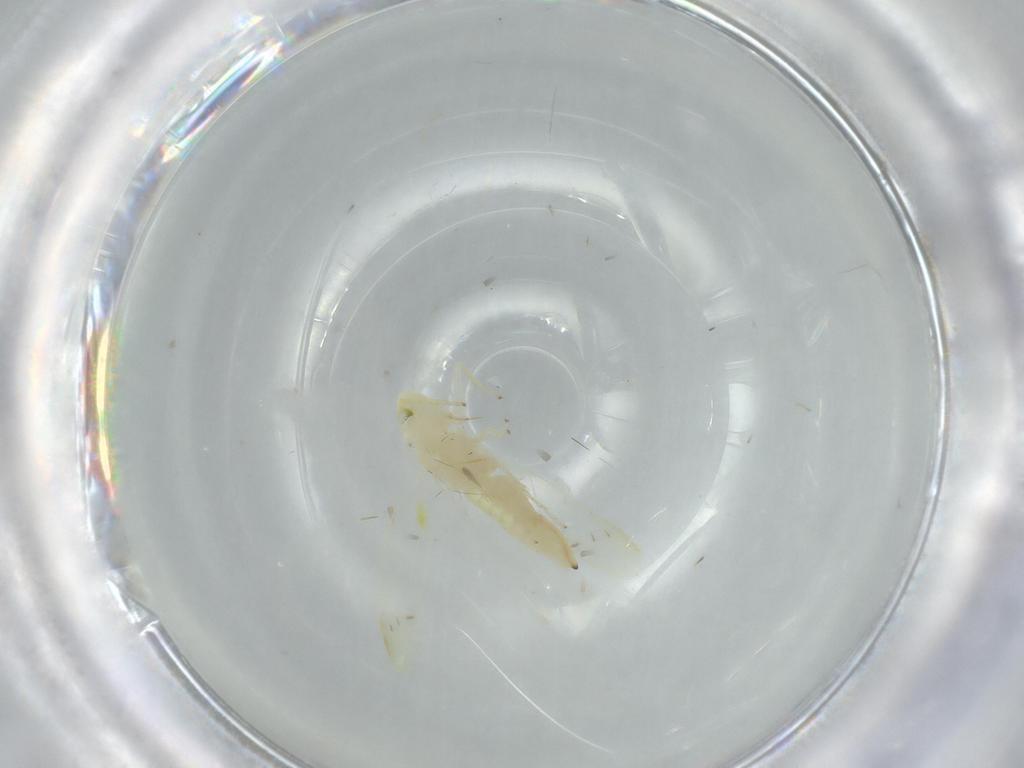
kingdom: Animalia
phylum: Arthropoda
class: Insecta
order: Hemiptera
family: Cicadellidae
